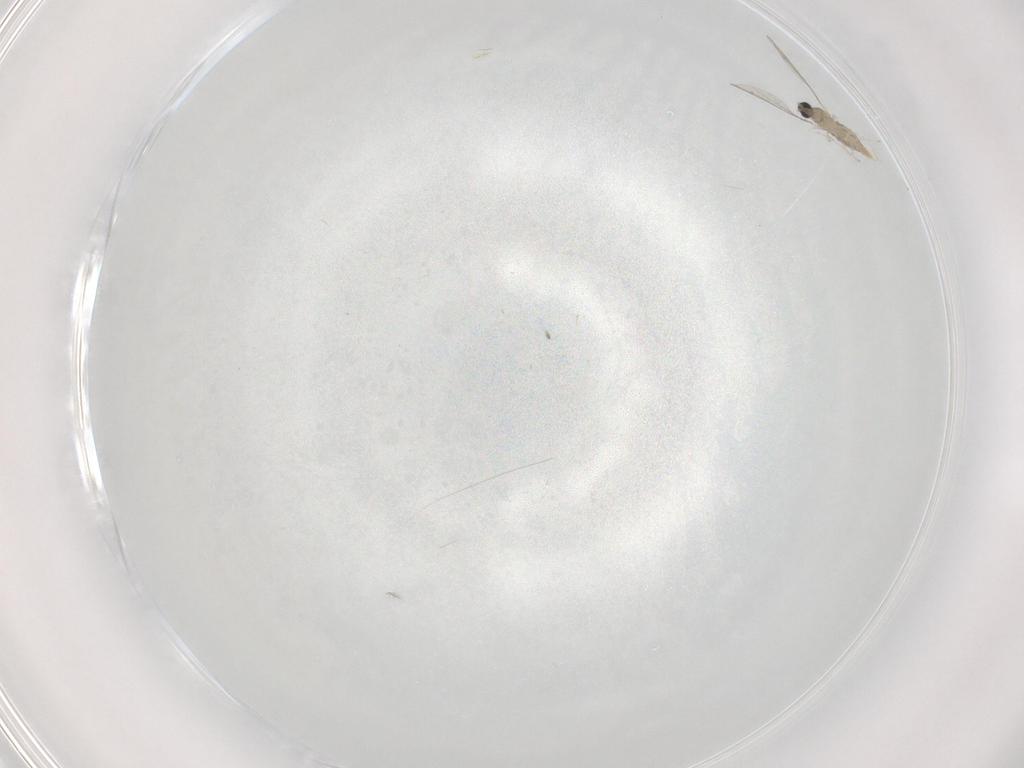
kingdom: Animalia
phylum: Arthropoda
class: Insecta
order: Diptera
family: Cecidomyiidae
